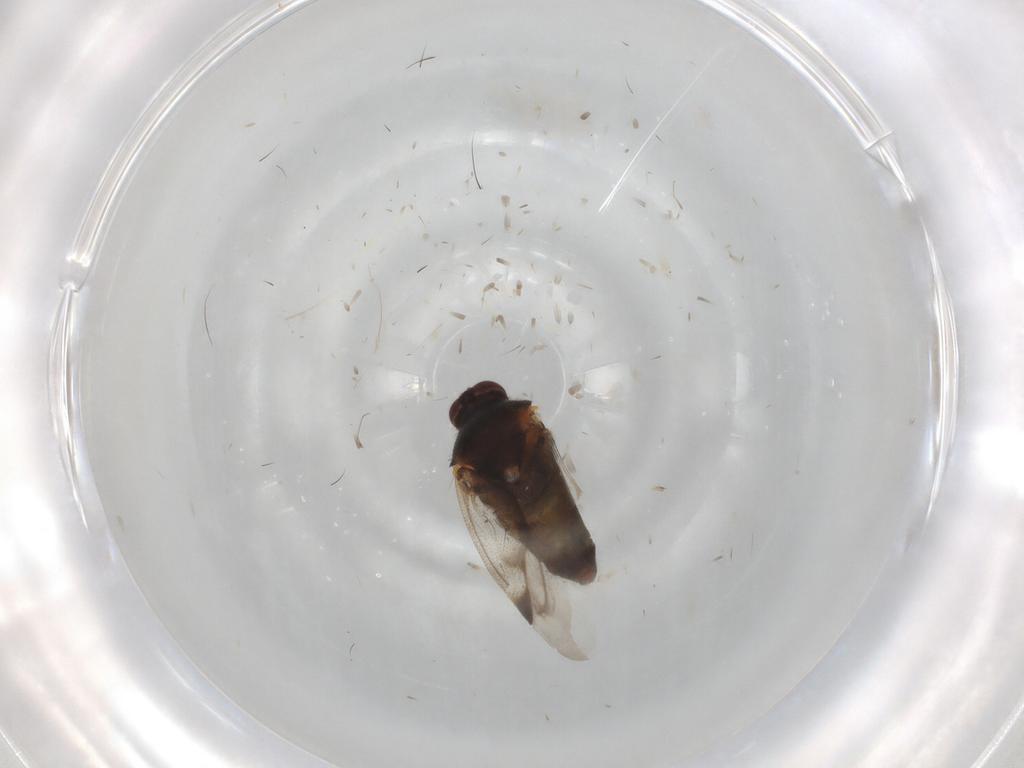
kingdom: Animalia
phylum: Arthropoda
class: Insecta
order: Hemiptera
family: Miridae
